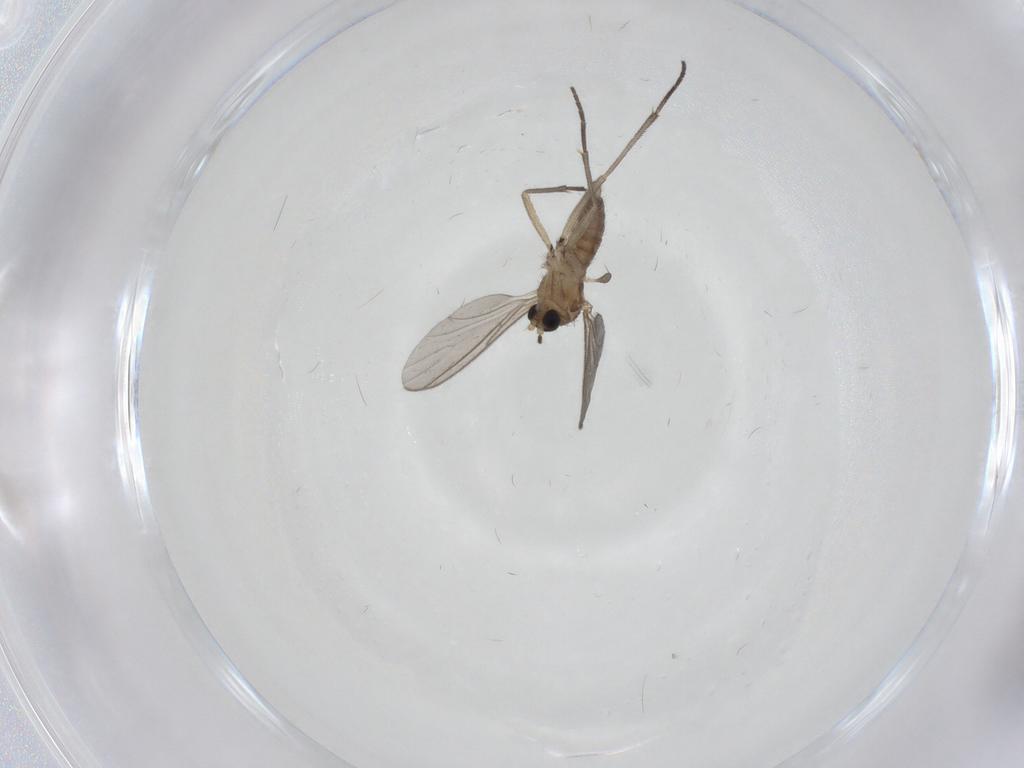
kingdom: Animalia
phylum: Arthropoda
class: Insecta
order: Diptera
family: Sciaridae
